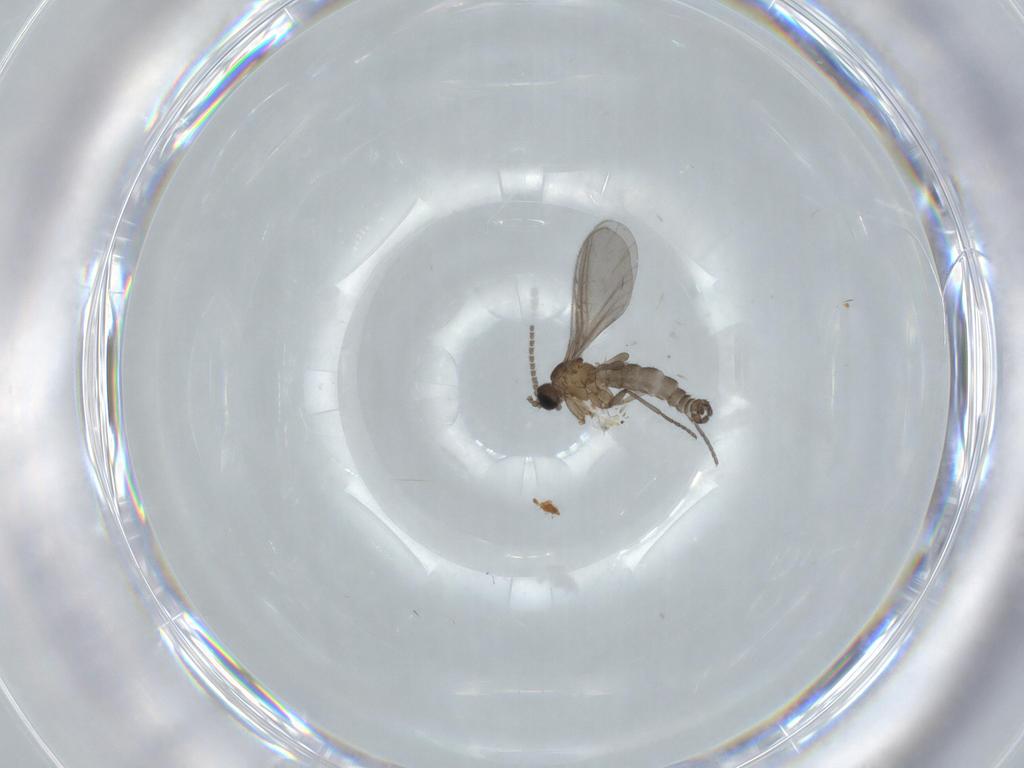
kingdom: Animalia
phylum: Arthropoda
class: Insecta
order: Diptera
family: Sciaridae
